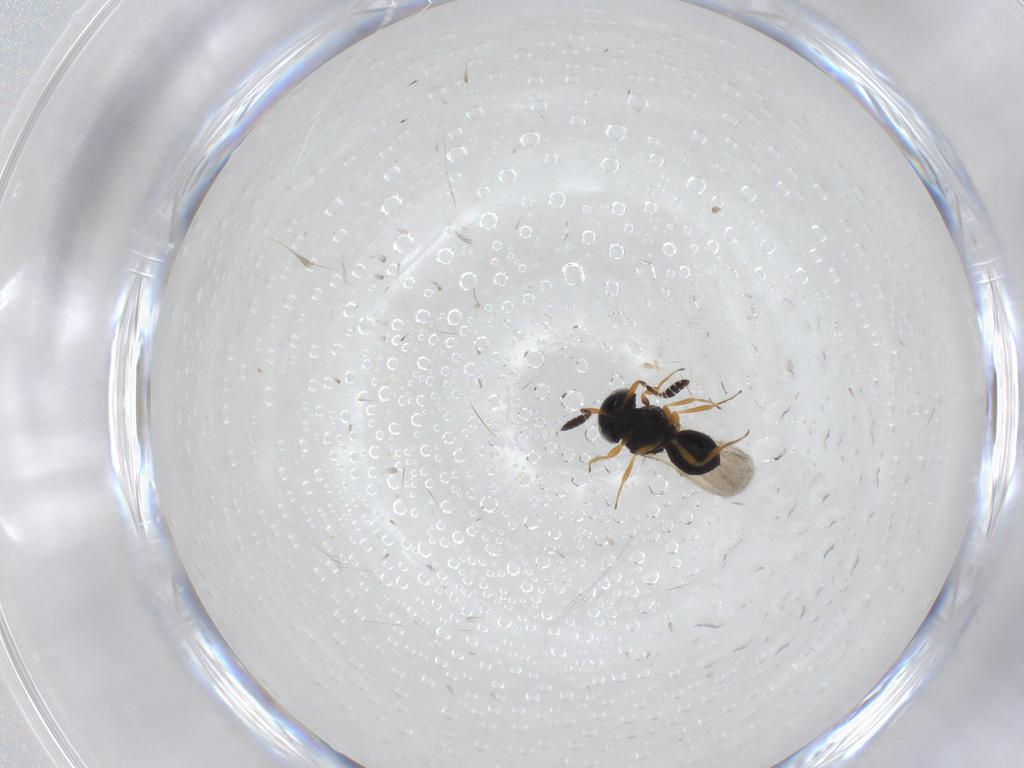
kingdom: Animalia
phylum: Arthropoda
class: Insecta
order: Hymenoptera
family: Scelionidae
